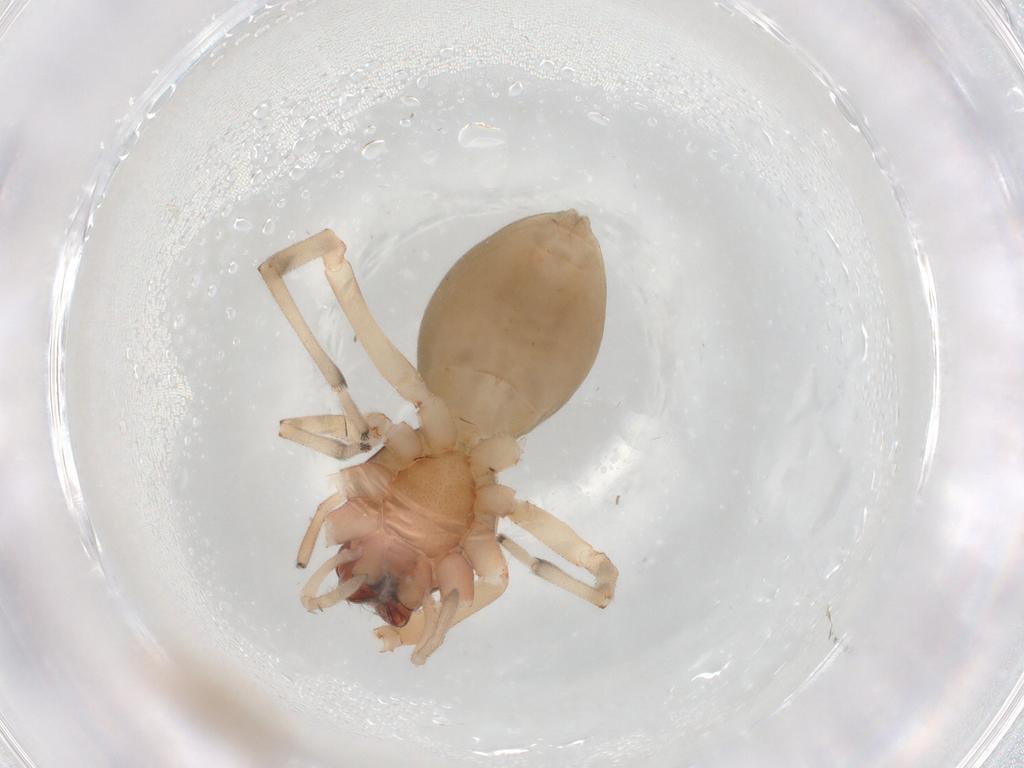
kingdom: Animalia
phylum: Arthropoda
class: Arachnida
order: Araneae
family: Trachelidae
